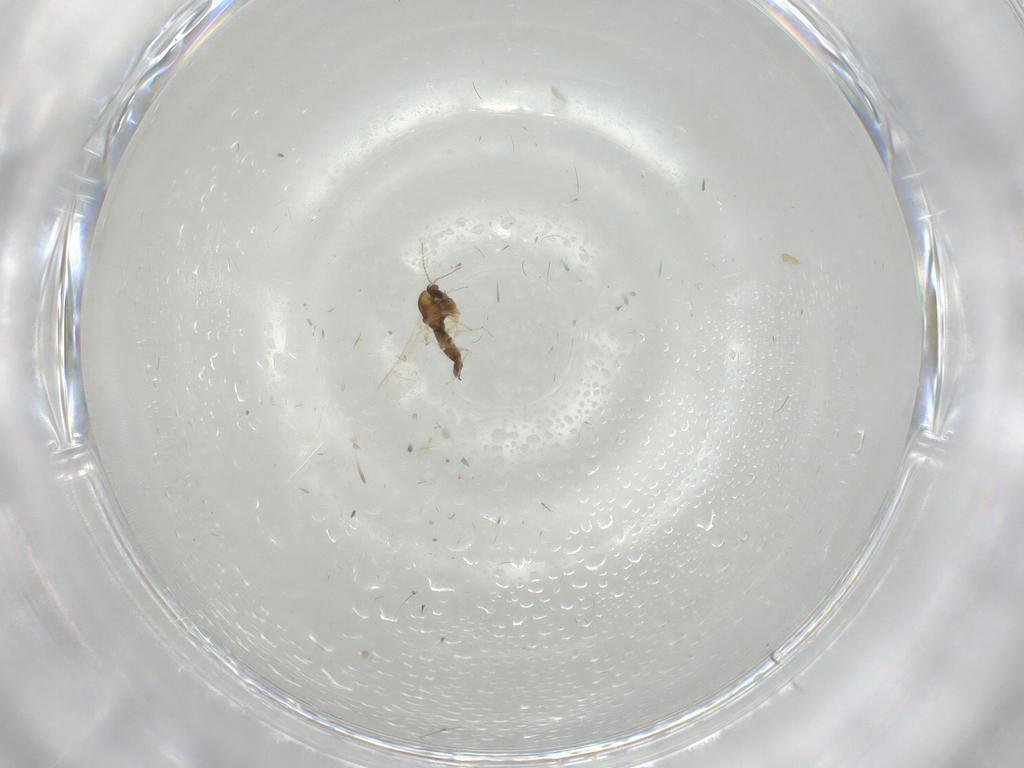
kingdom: Animalia
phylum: Arthropoda
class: Insecta
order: Diptera
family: Chironomidae
